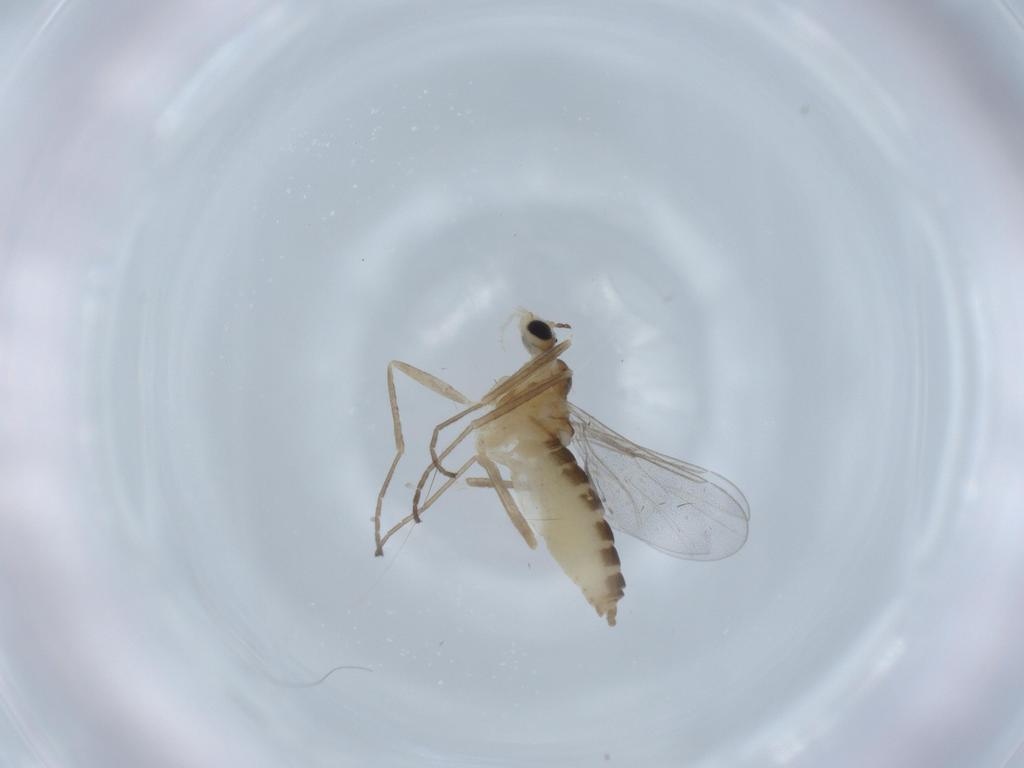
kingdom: Animalia
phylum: Arthropoda
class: Insecta
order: Diptera
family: Cecidomyiidae
